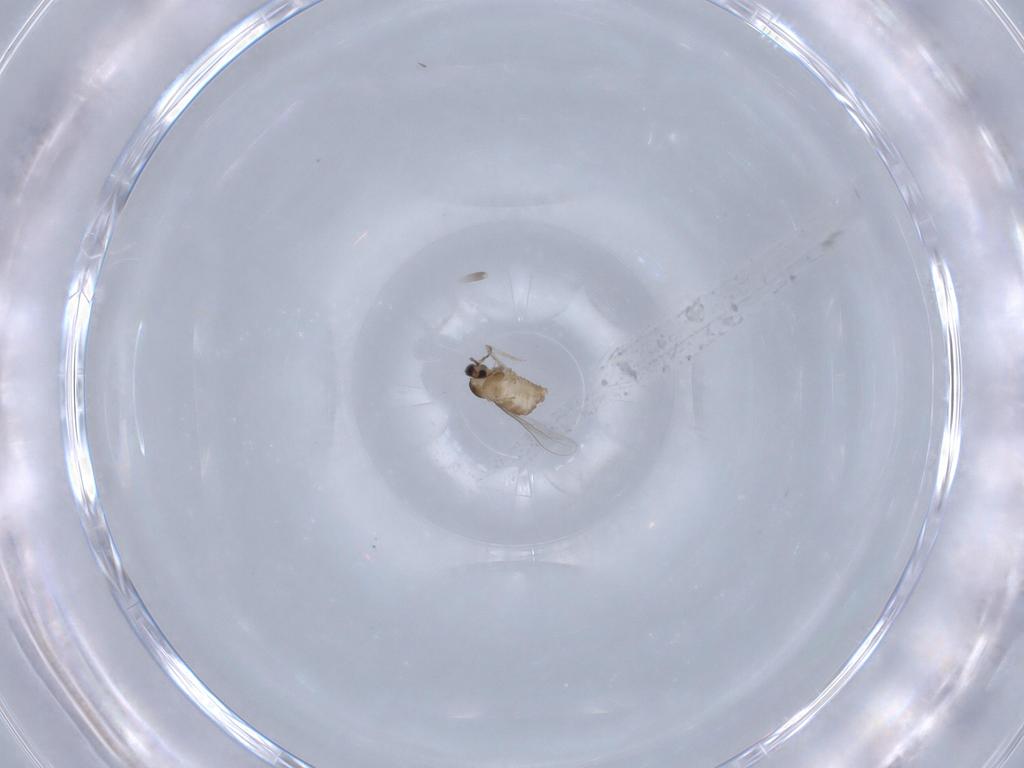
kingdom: Animalia
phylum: Arthropoda
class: Insecta
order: Diptera
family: Cecidomyiidae
